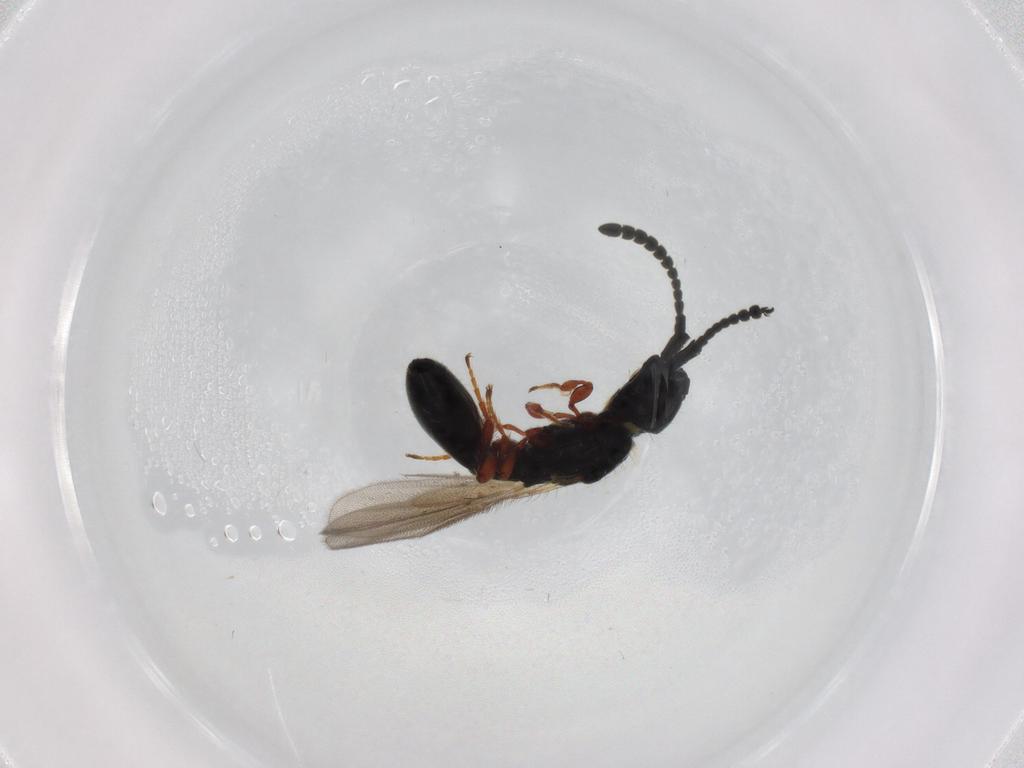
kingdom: Animalia
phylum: Arthropoda
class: Insecta
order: Hymenoptera
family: Diapriidae
